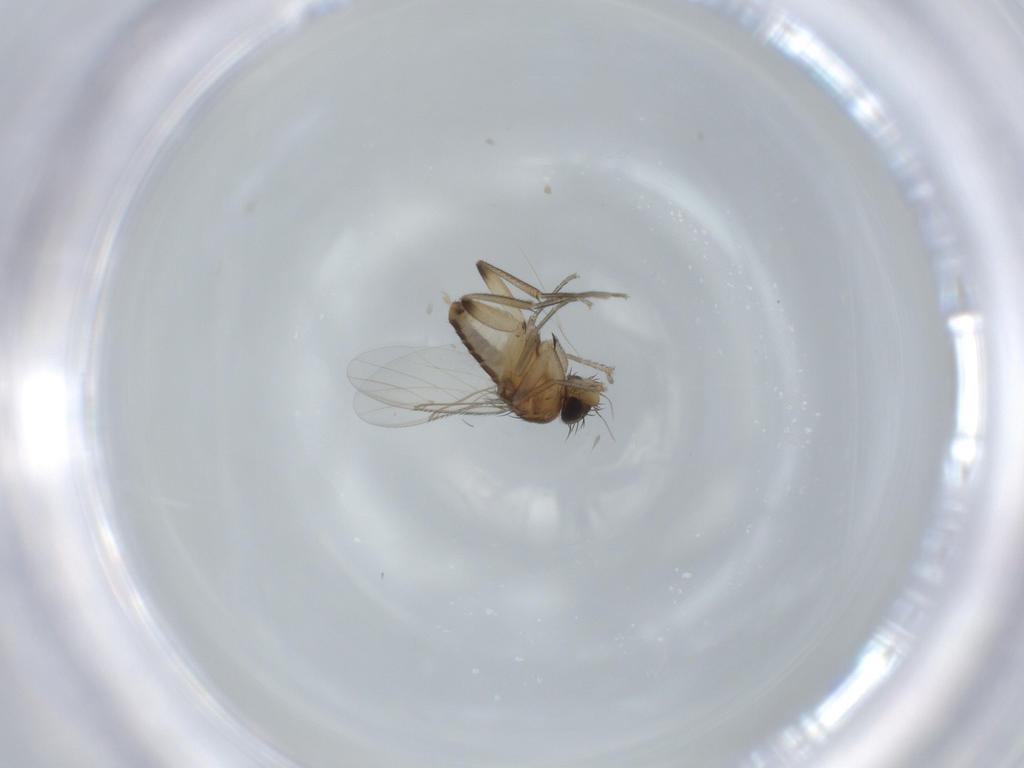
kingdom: Animalia
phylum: Arthropoda
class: Insecta
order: Diptera
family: Phoridae
